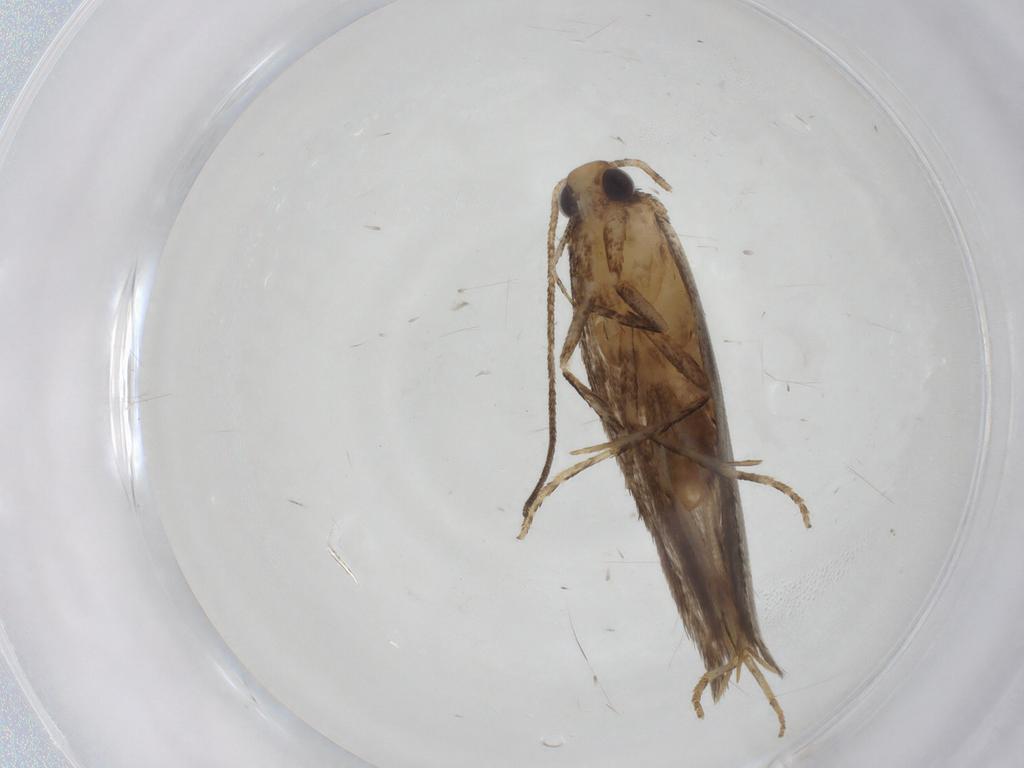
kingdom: Animalia
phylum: Arthropoda
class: Insecta
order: Lepidoptera
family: Gelechiidae
